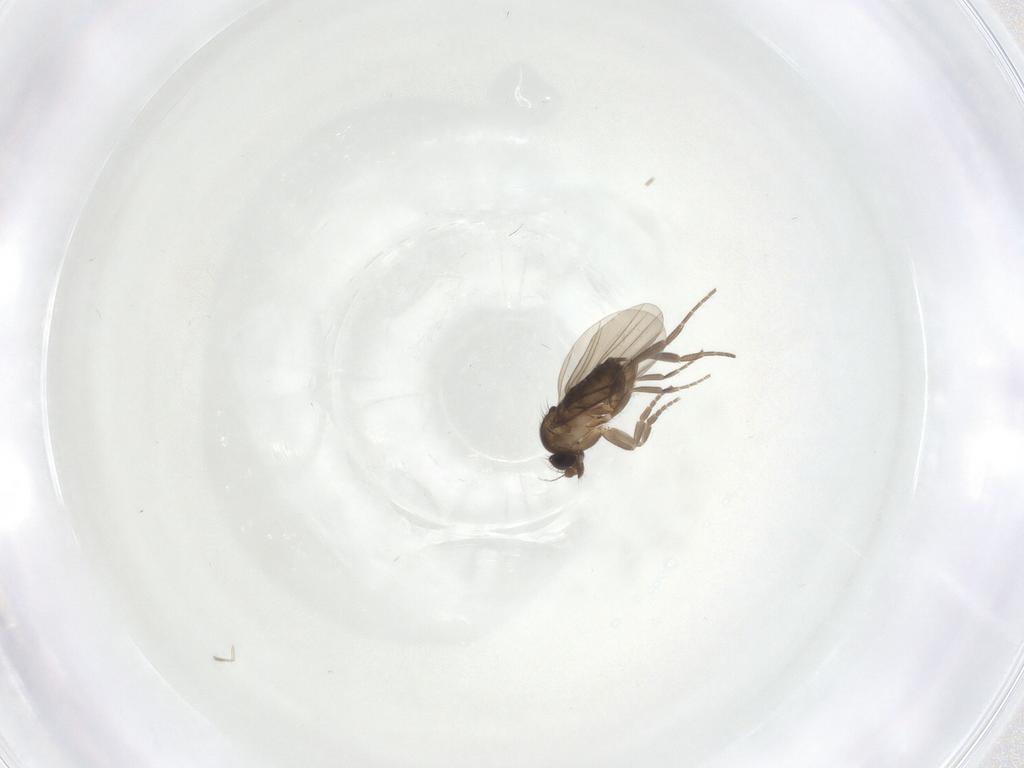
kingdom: Animalia
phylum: Arthropoda
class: Insecta
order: Diptera
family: Phoridae
